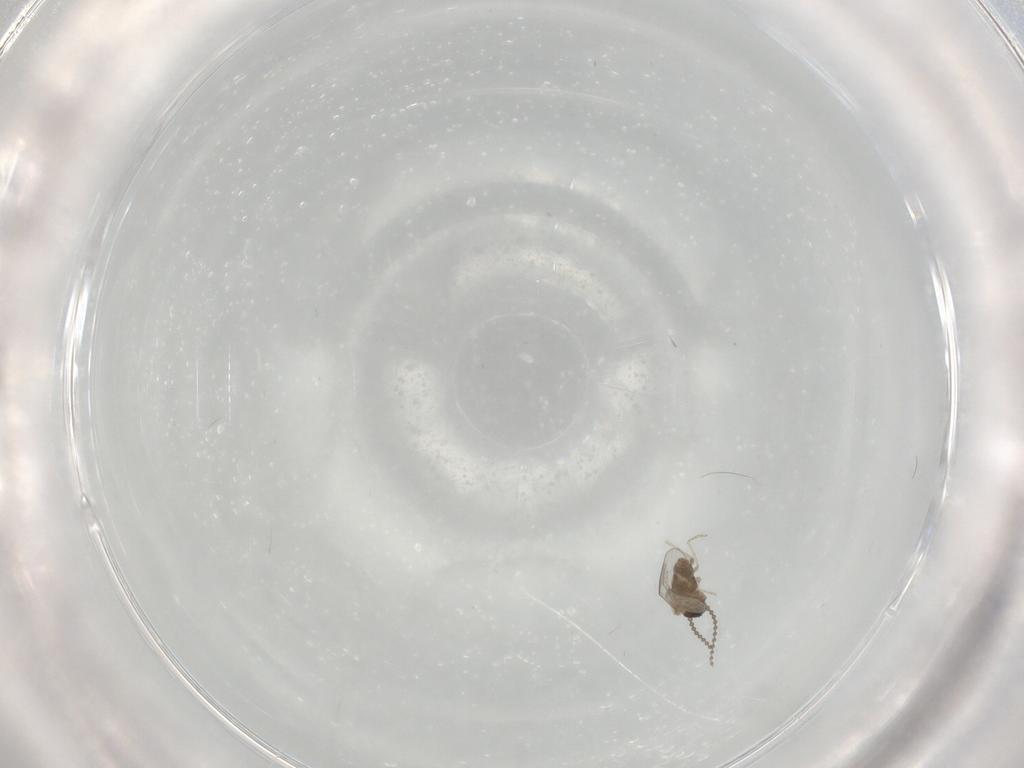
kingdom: Animalia
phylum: Arthropoda
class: Insecta
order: Diptera
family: Cecidomyiidae
